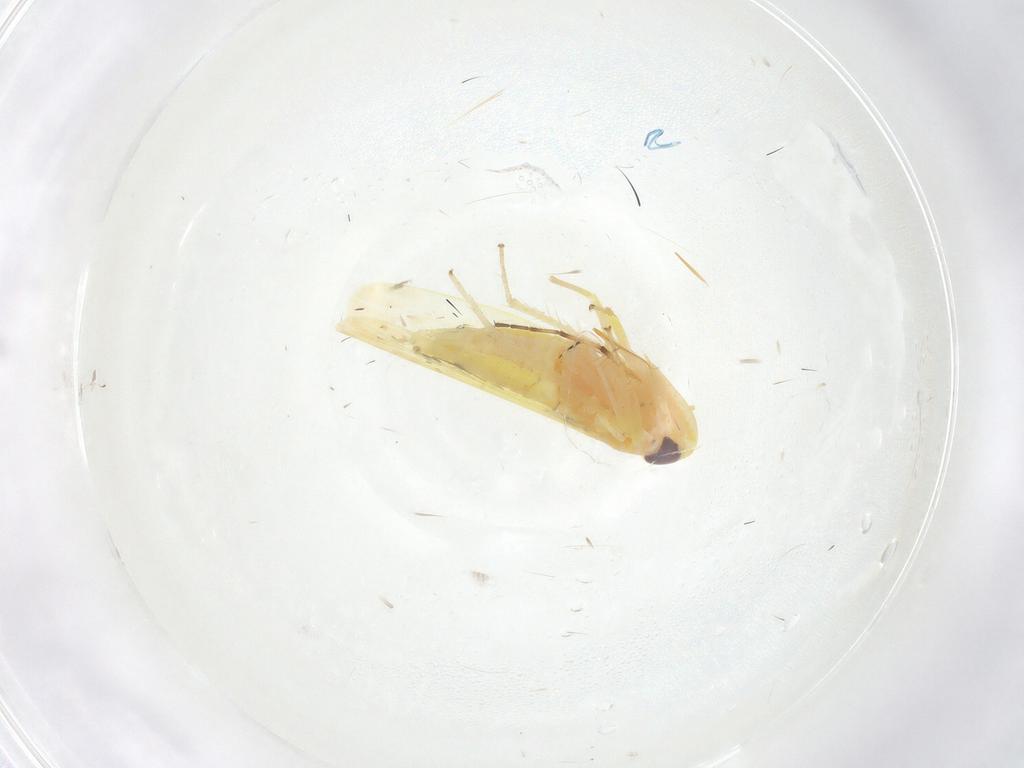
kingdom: Animalia
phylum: Arthropoda
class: Insecta
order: Hemiptera
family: Cicadellidae
